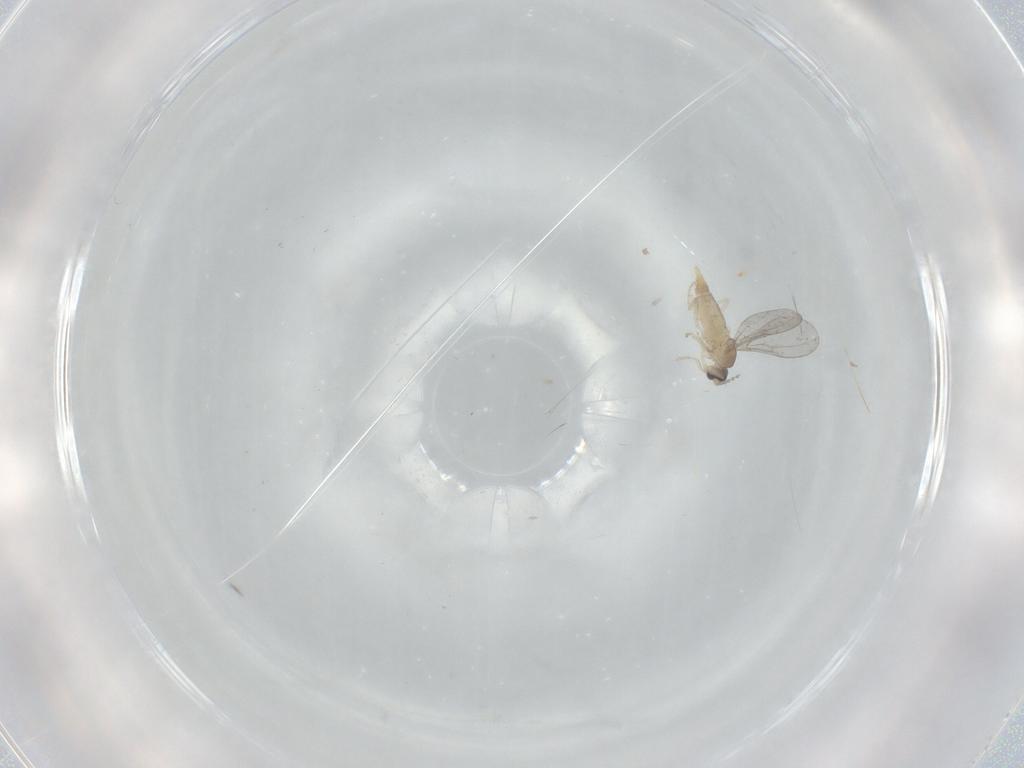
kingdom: Animalia
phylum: Arthropoda
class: Insecta
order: Diptera
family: Cecidomyiidae
